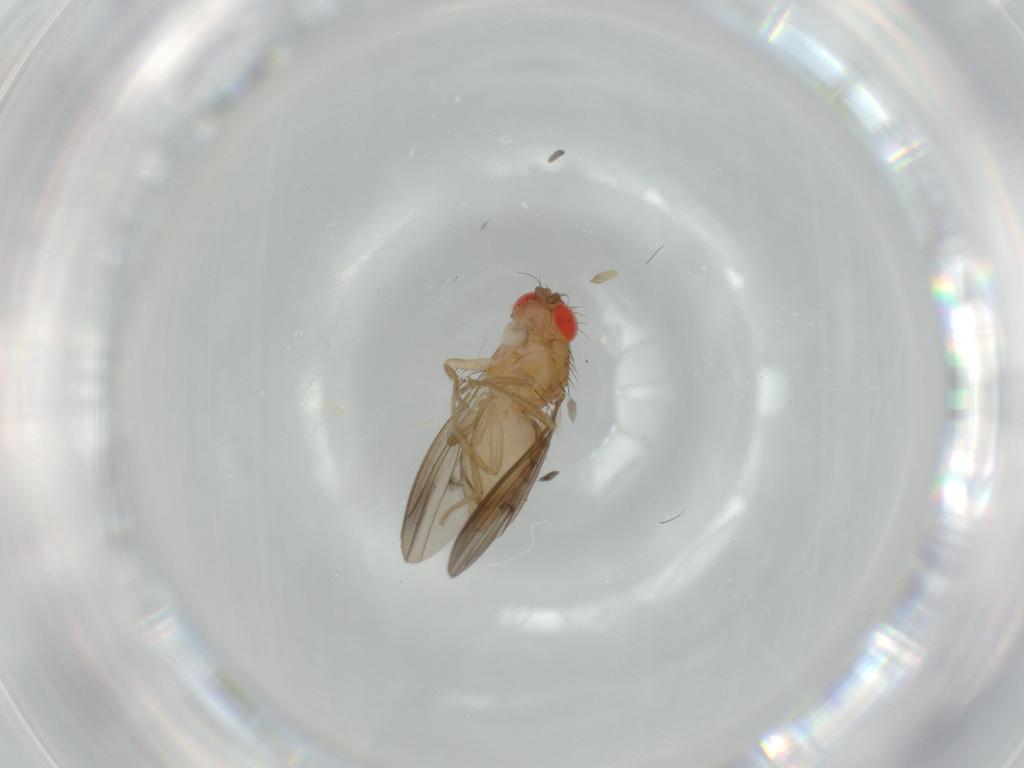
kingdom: Animalia
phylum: Arthropoda
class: Insecta
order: Diptera
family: Drosophilidae
